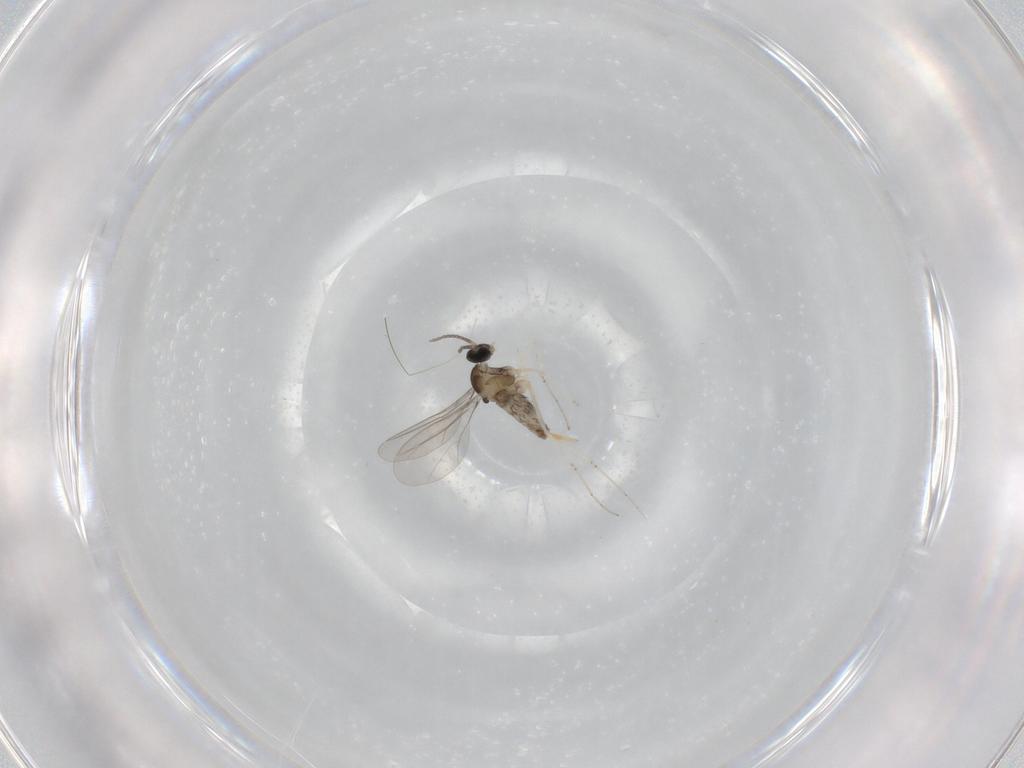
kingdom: Animalia
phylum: Arthropoda
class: Insecta
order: Diptera
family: Cecidomyiidae
